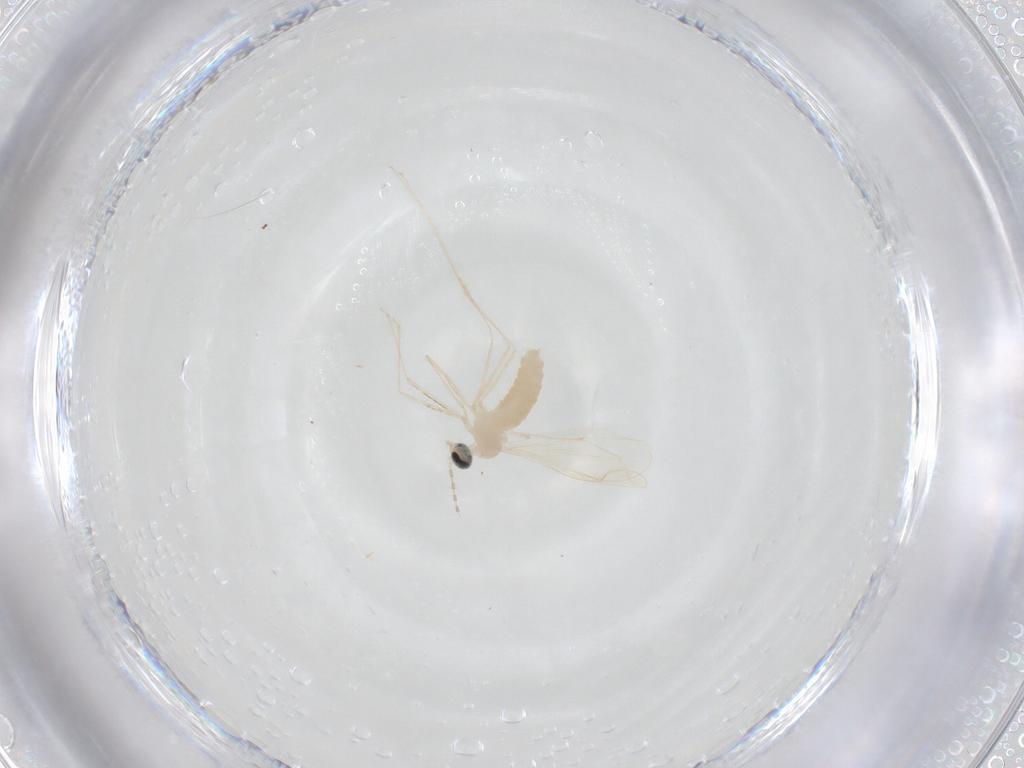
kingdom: Animalia
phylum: Arthropoda
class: Insecta
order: Diptera
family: Cecidomyiidae
